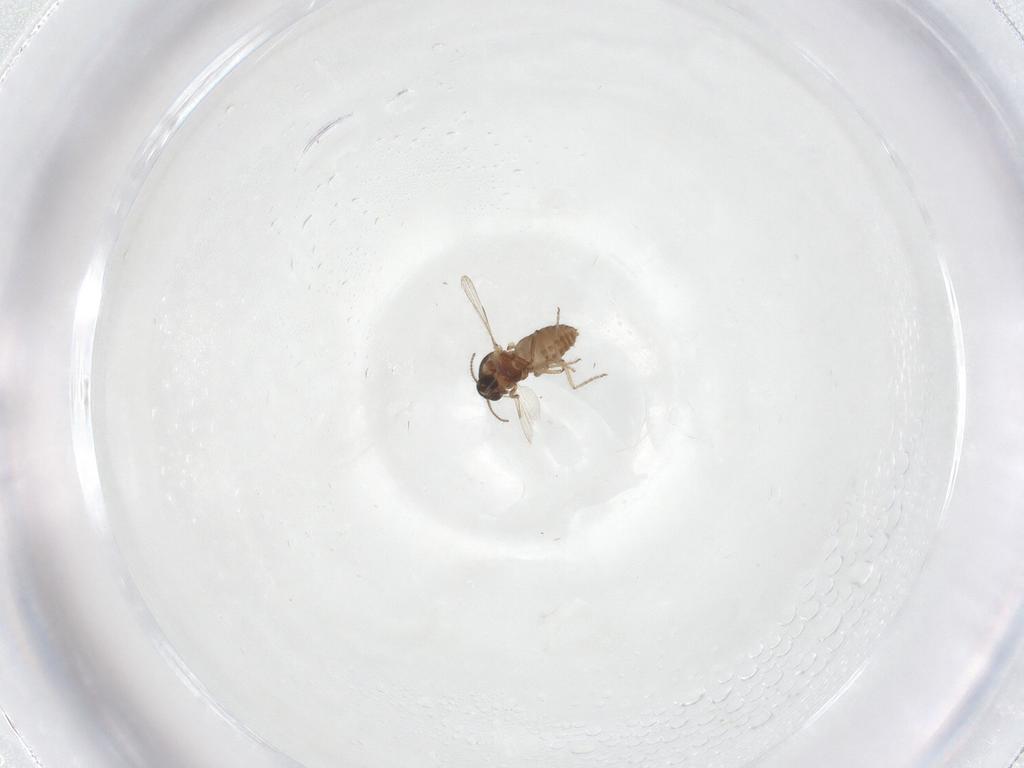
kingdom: Animalia
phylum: Arthropoda
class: Insecta
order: Diptera
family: Ceratopogonidae
